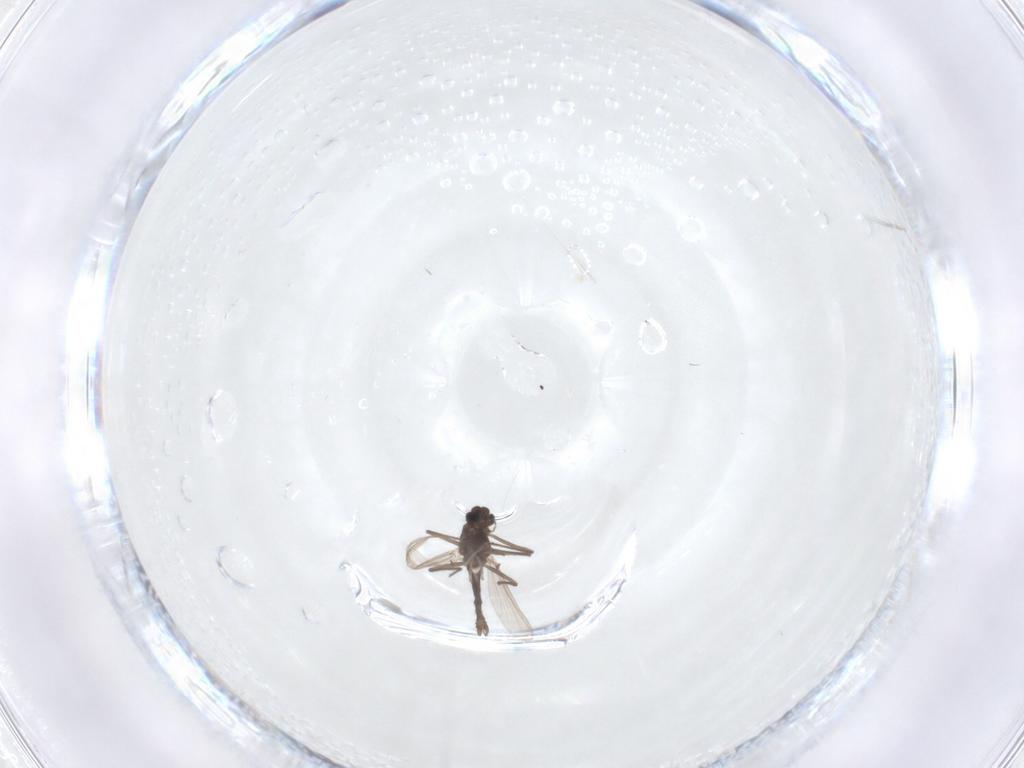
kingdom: Animalia
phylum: Arthropoda
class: Insecta
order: Diptera
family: Chironomidae
